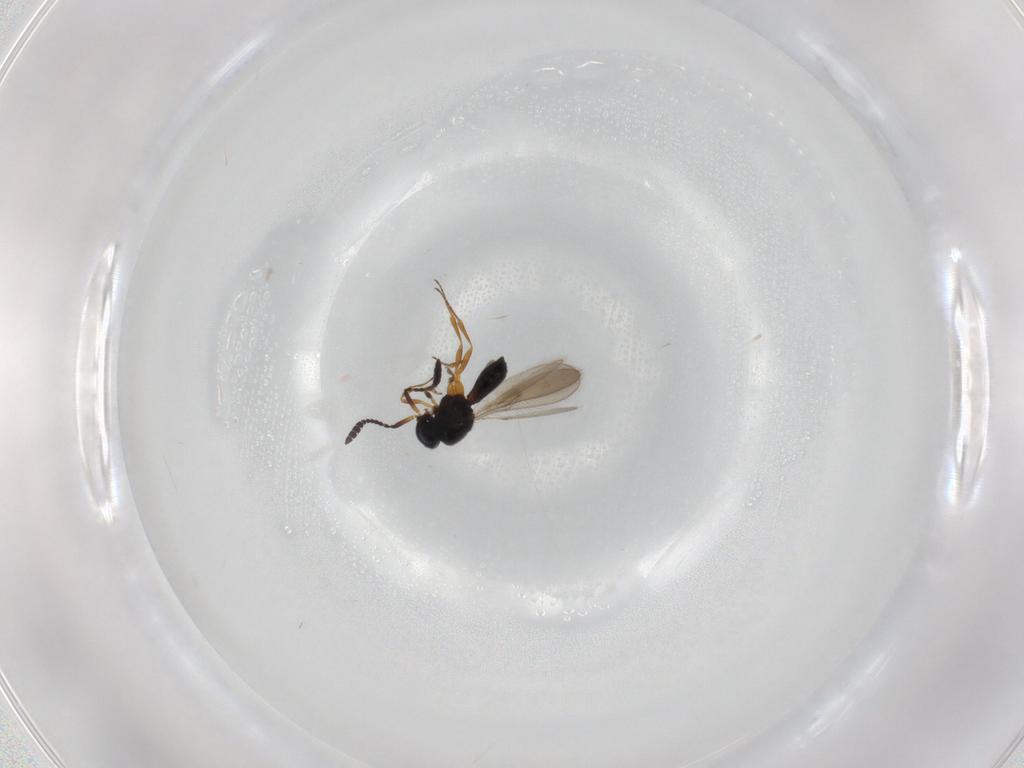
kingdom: Animalia
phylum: Arthropoda
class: Insecta
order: Hymenoptera
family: Scelionidae
